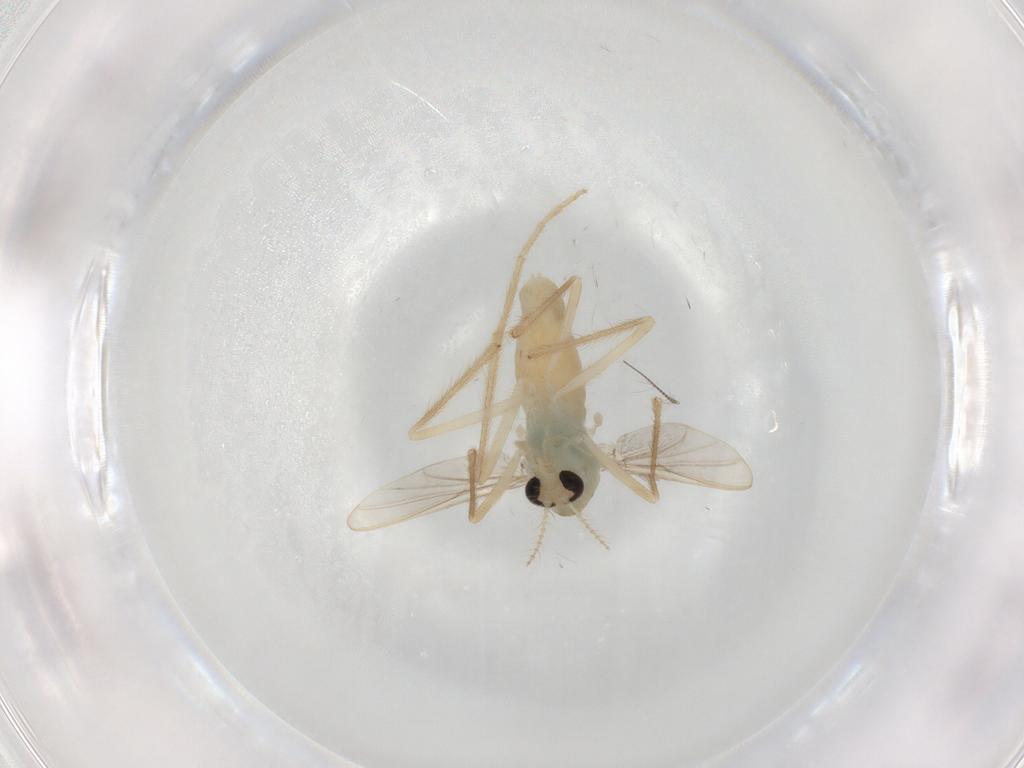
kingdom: Animalia
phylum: Arthropoda
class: Insecta
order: Diptera
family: Chironomidae
